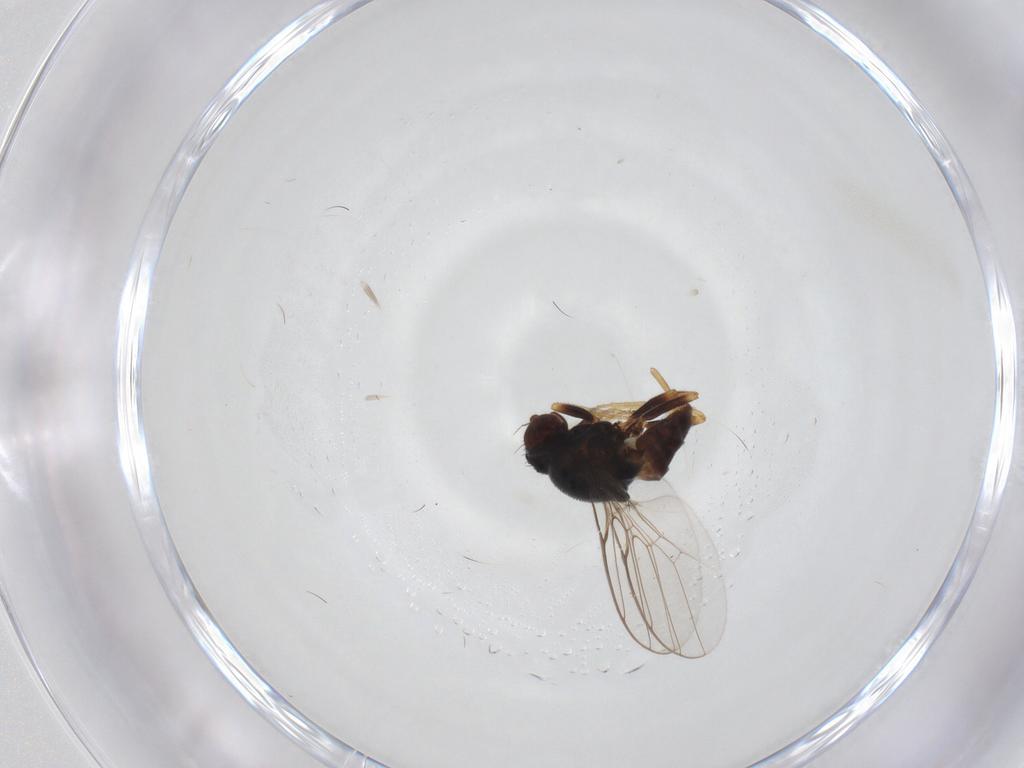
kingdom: Animalia
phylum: Arthropoda
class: Insecta
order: Diptera
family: Chloropidae
